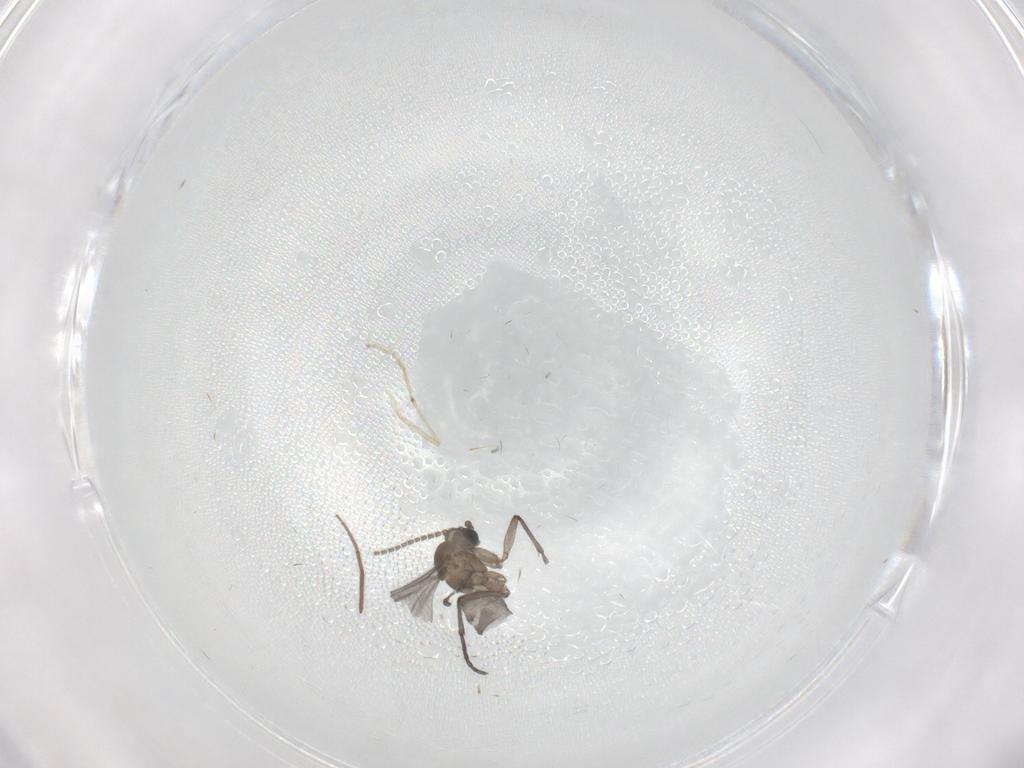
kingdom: Animalia
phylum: Arthropoda
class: Insecta
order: Diptera
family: Sciaridae
